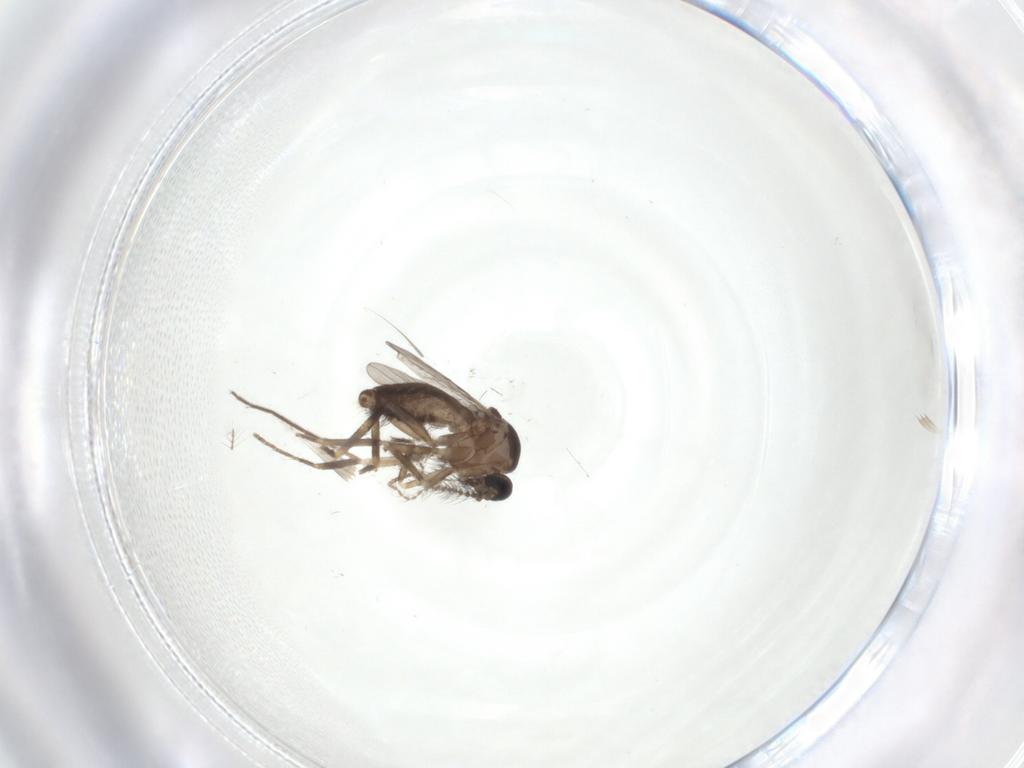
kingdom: Animalia
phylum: Arthropoda
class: Insecta
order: Diptera
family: Ceratopogonidae
